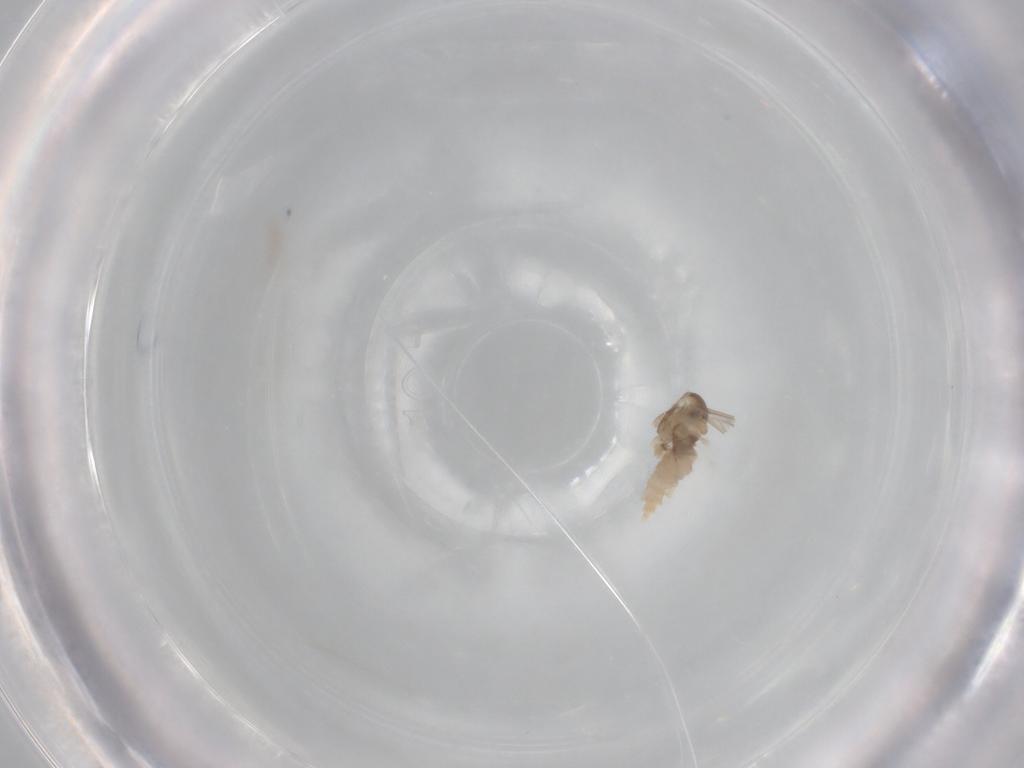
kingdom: Animalia
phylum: Arthropoda
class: Insecta
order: Diptera
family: Cecidomyiidae
